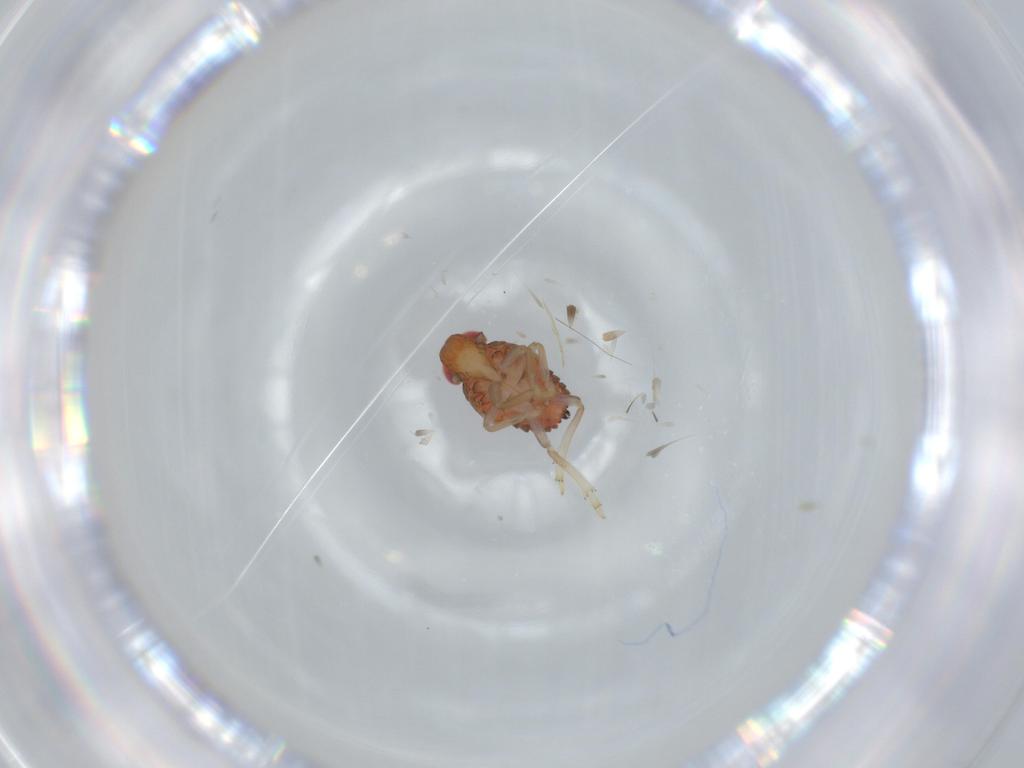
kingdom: Animalia
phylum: Arthropoda
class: Insecta
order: Hemiptera
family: Issidae
